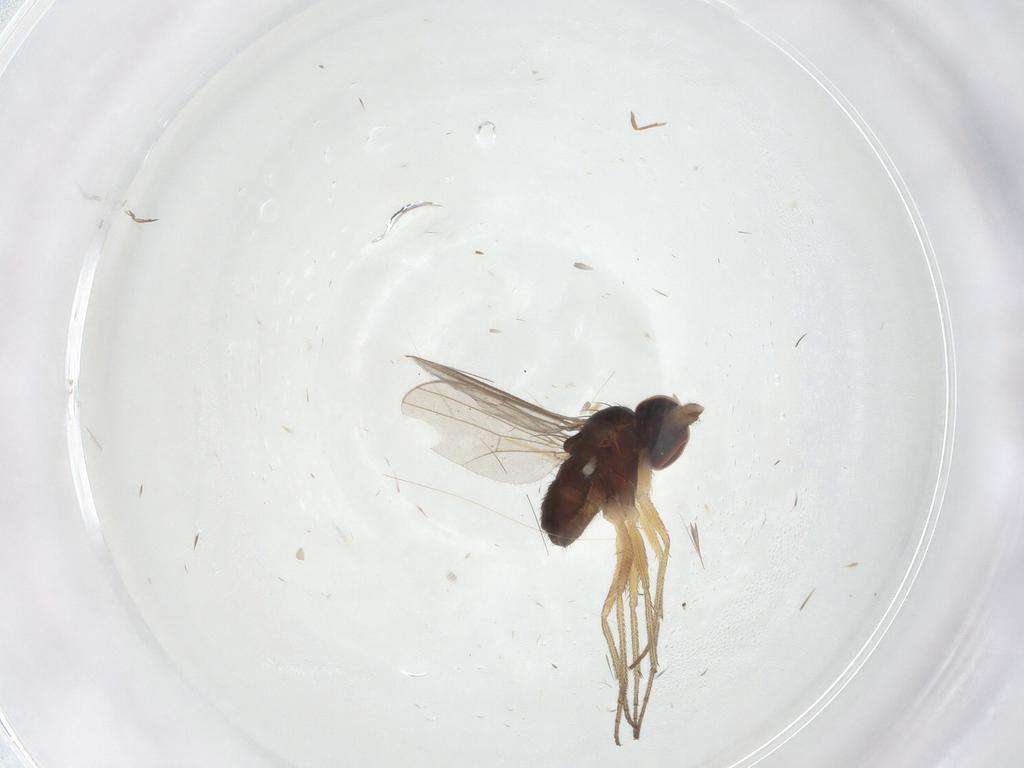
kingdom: Animalia
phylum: Arthropoda
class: Insecta
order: Diptera
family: Dolichopodidae
